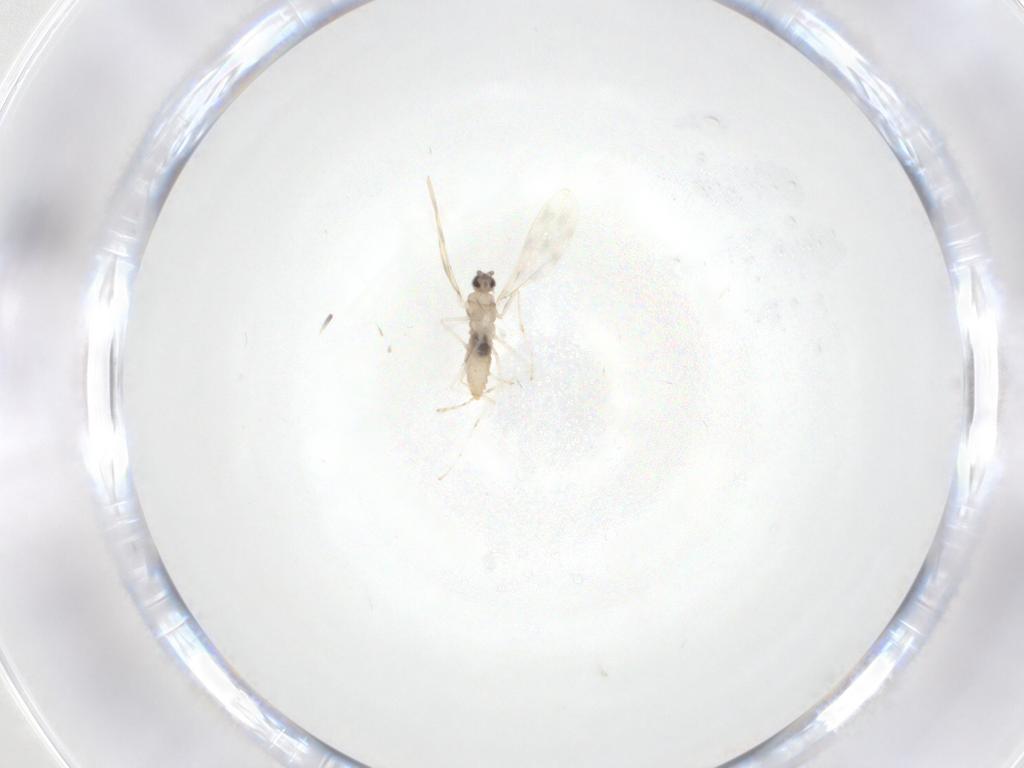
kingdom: Animalia
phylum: Arthropoda
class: Insecta
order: Diptera
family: Cecidomyiidae
